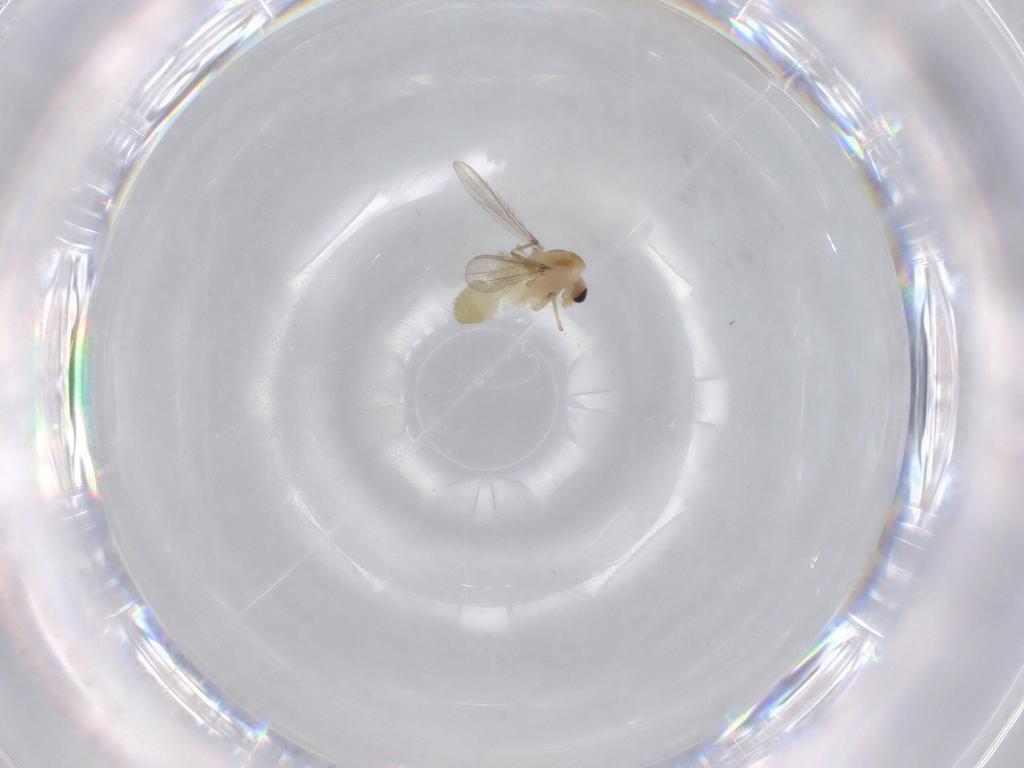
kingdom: Animalia
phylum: Arthropoda
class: Insecta
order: Diptera
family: Chironomidae
